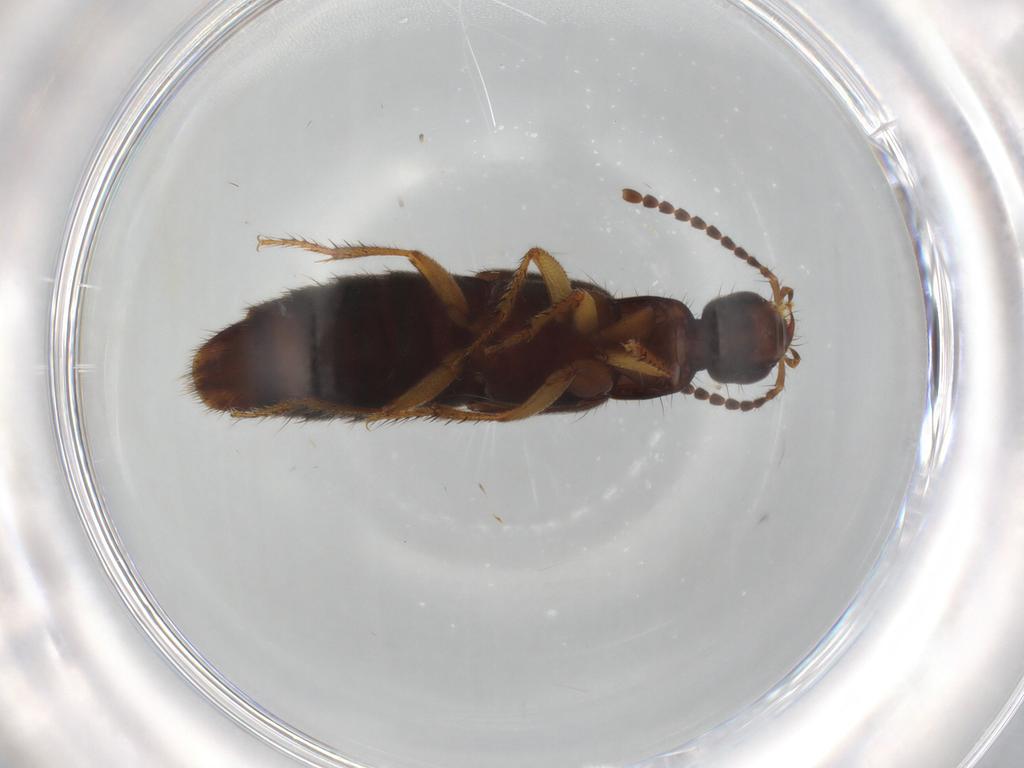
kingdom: Animalia
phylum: Arthropoda
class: Insecta
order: Coleoptera
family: Staphylinidae
